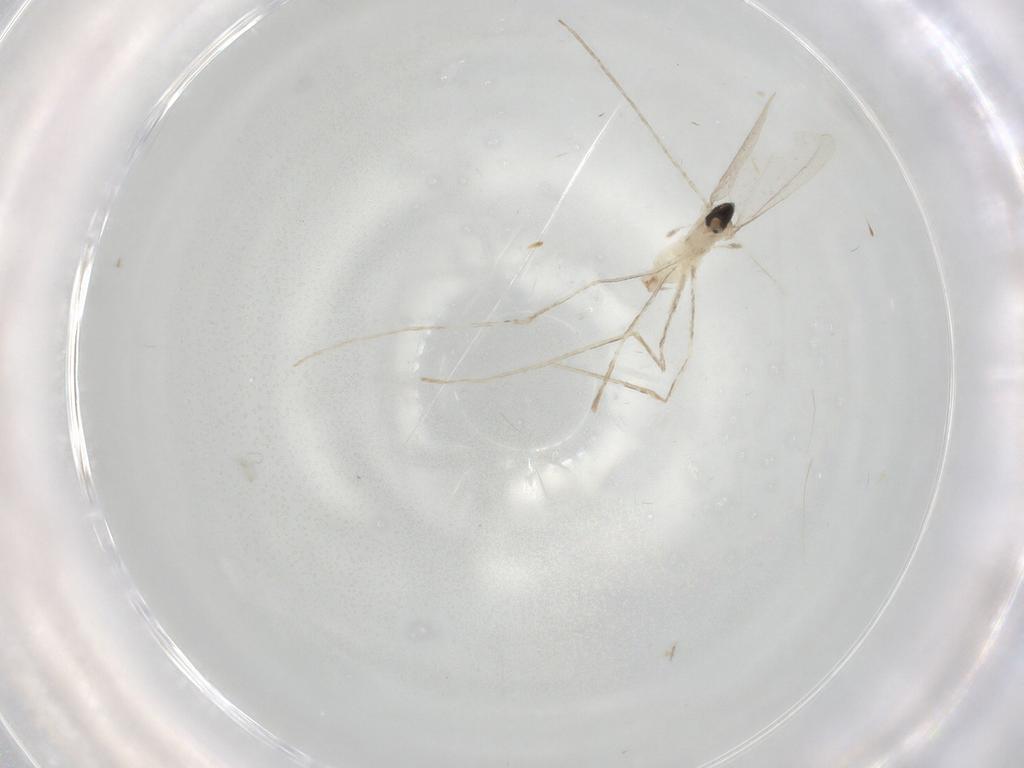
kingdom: Animalia
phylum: Arthropoda
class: Insecta
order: Diptera
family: Cecidomyiidae
